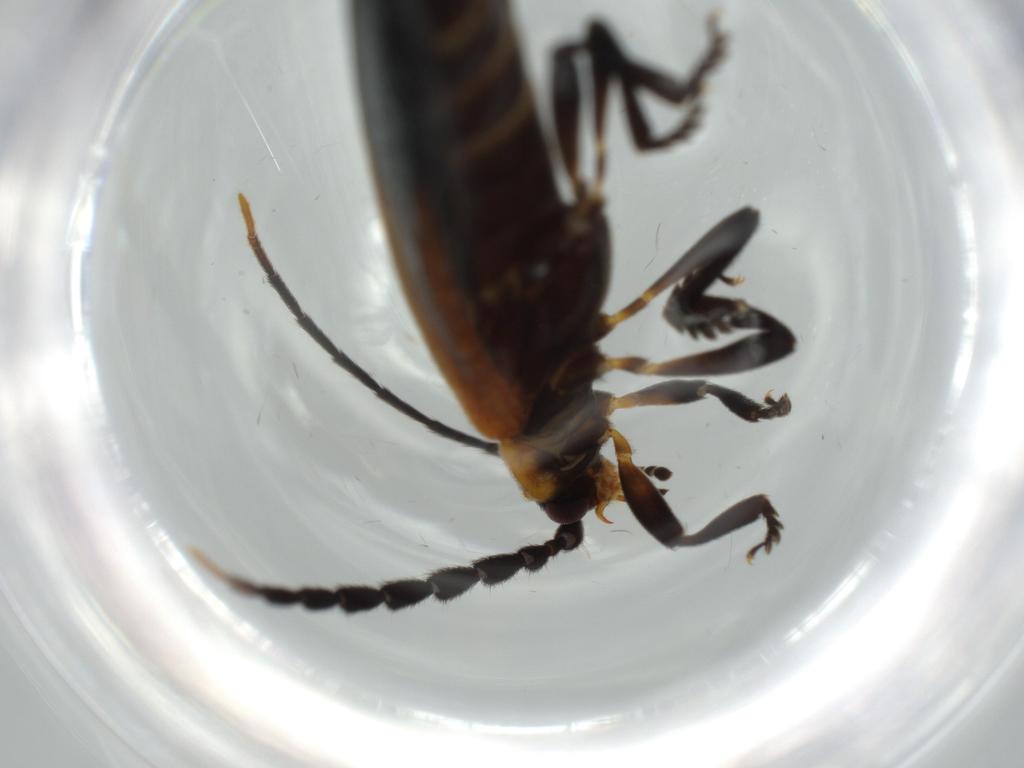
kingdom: Animalia
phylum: Arthropoda
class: Insecta
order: Coleoptera
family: Lycidae
